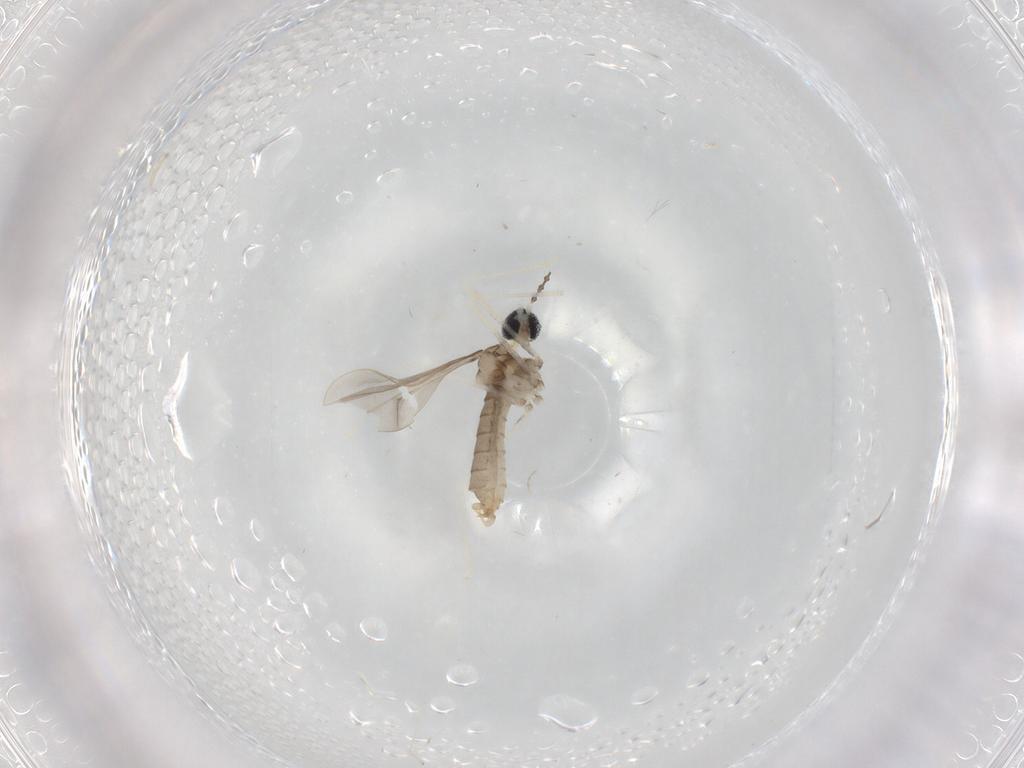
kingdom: Animalia
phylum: Arthropoda
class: Insecta
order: Diptera
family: Cecidomyiidae
